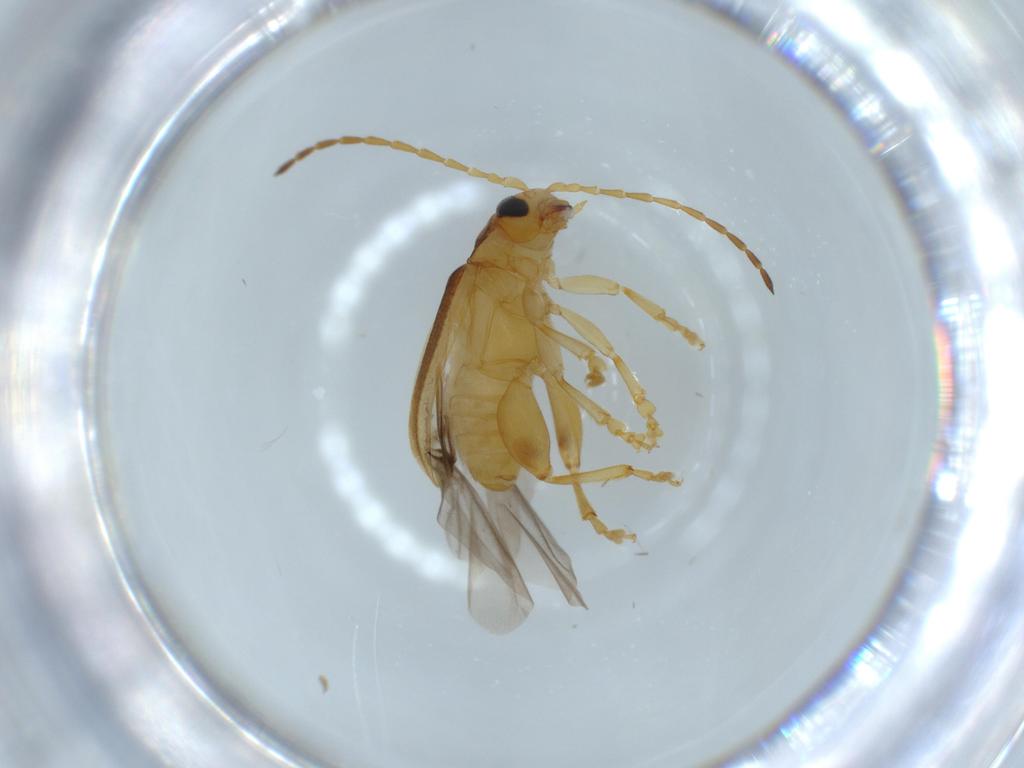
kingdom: Animalia
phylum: Arthropoda
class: Insecta
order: Coleoptera
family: Chrysomelidae
